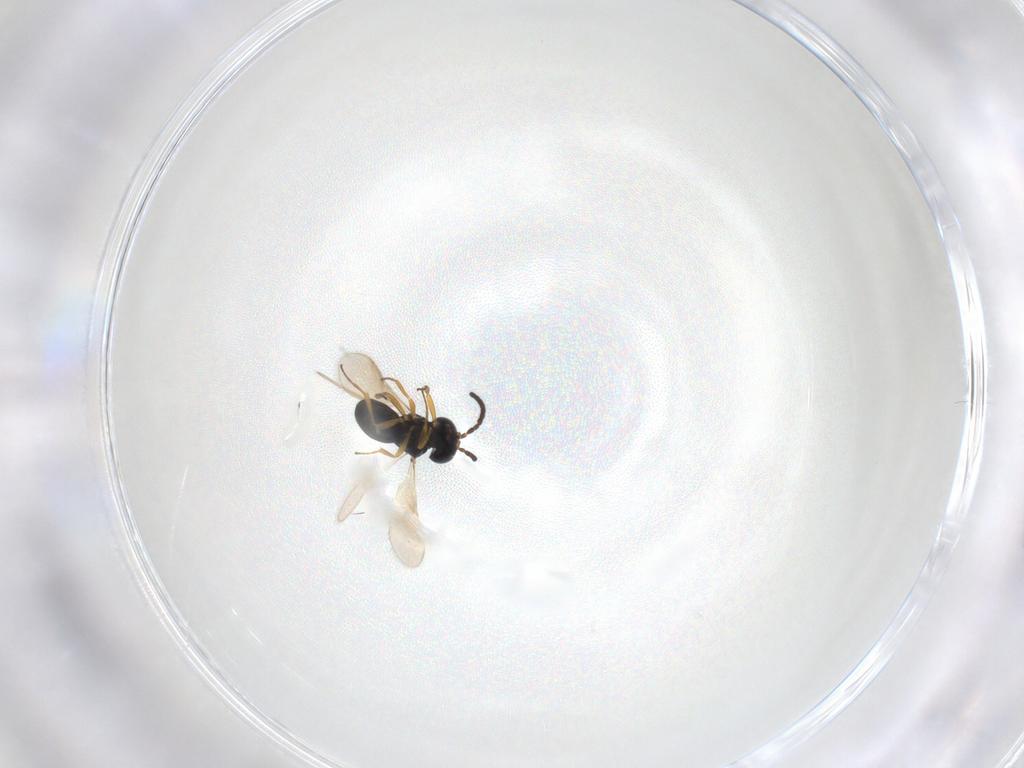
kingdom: Animalia
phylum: Arthropoda
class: Insecta
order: Hymenoptera
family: Scelionidae
